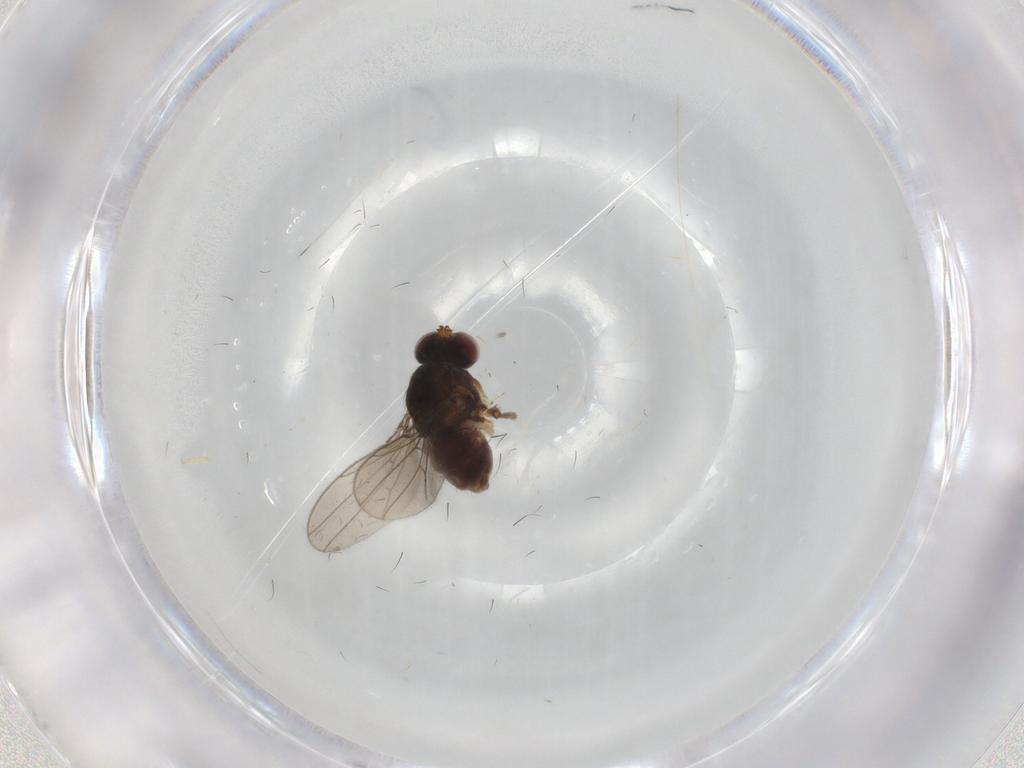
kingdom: Animalia
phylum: Arthropoda
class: Insecta
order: Diptera
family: Ephydridae
